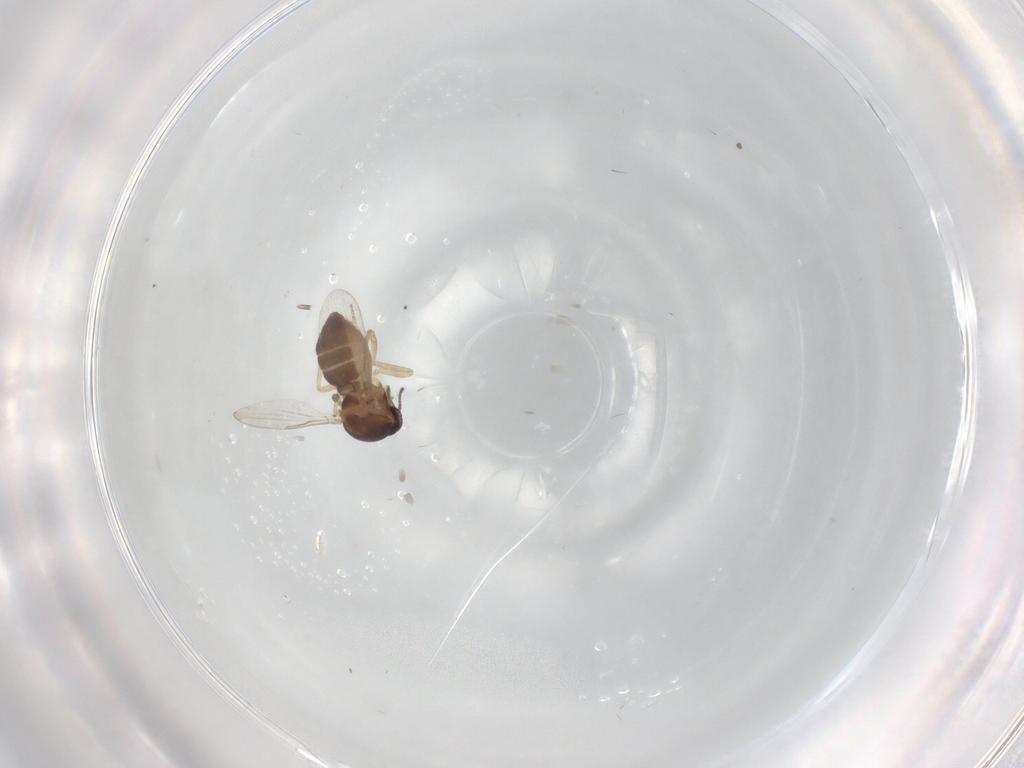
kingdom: Animalia
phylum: Arthropoda
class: Insecta
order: Diptera
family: Ceratopogonidae
